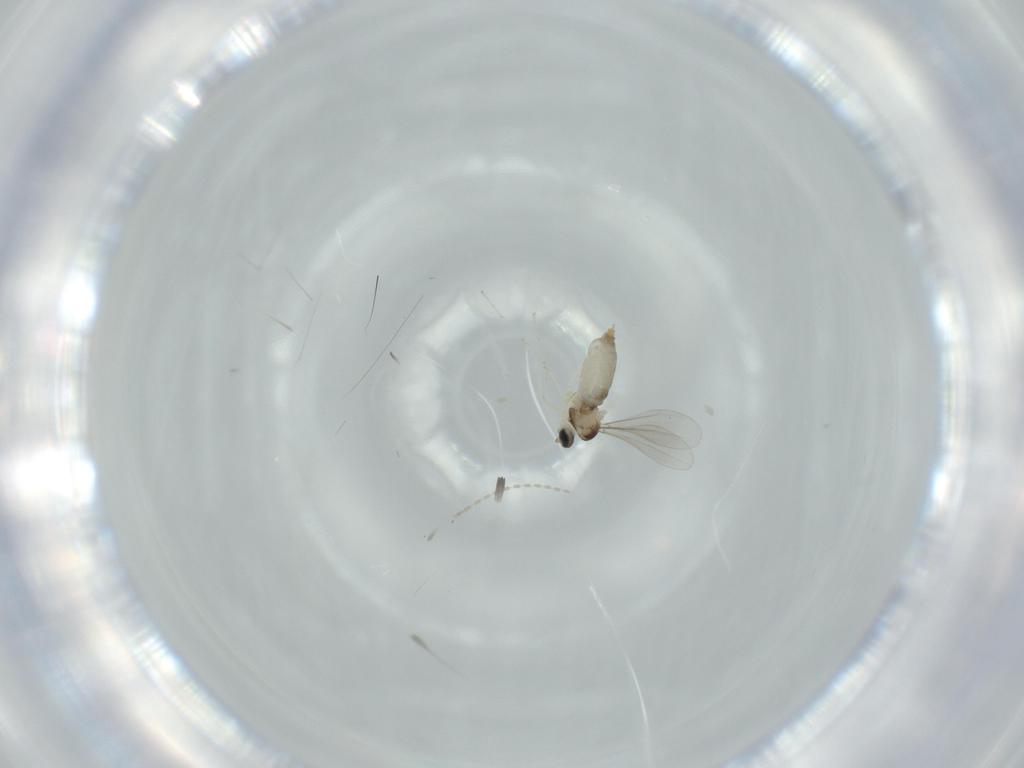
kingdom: Animalia
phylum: Arthropoda
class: Insecta
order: Diptera
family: Cecidomyiidae
